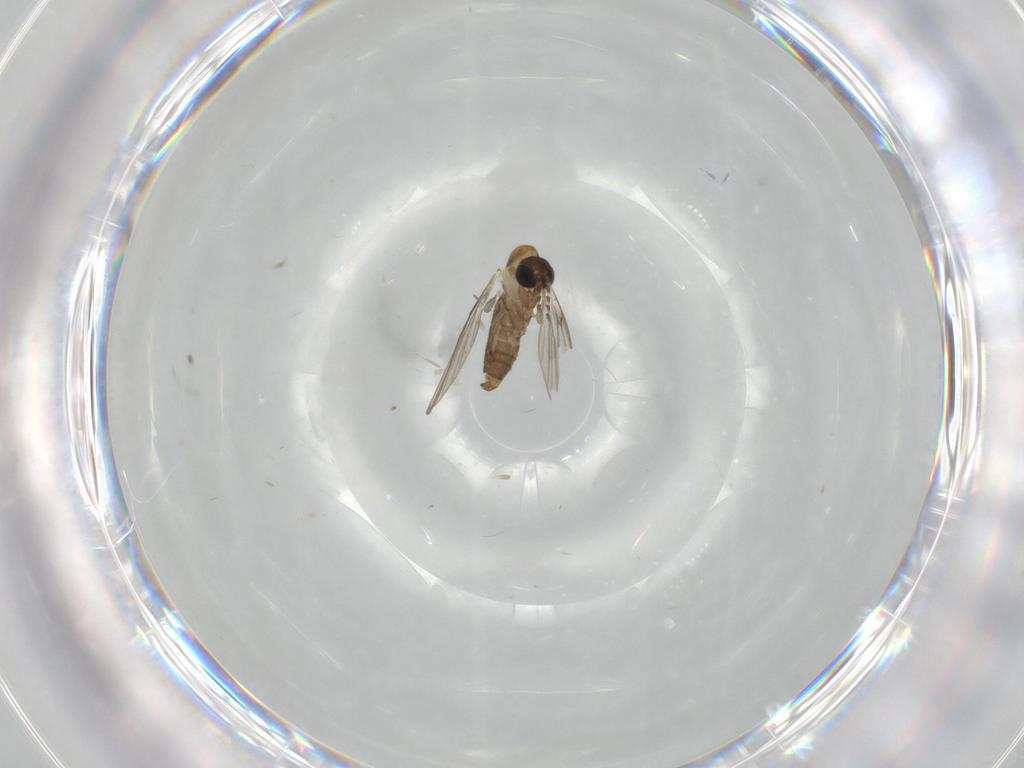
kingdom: Animalia
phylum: Arthropoda
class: Insecta
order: Diptera
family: Psychodidae
